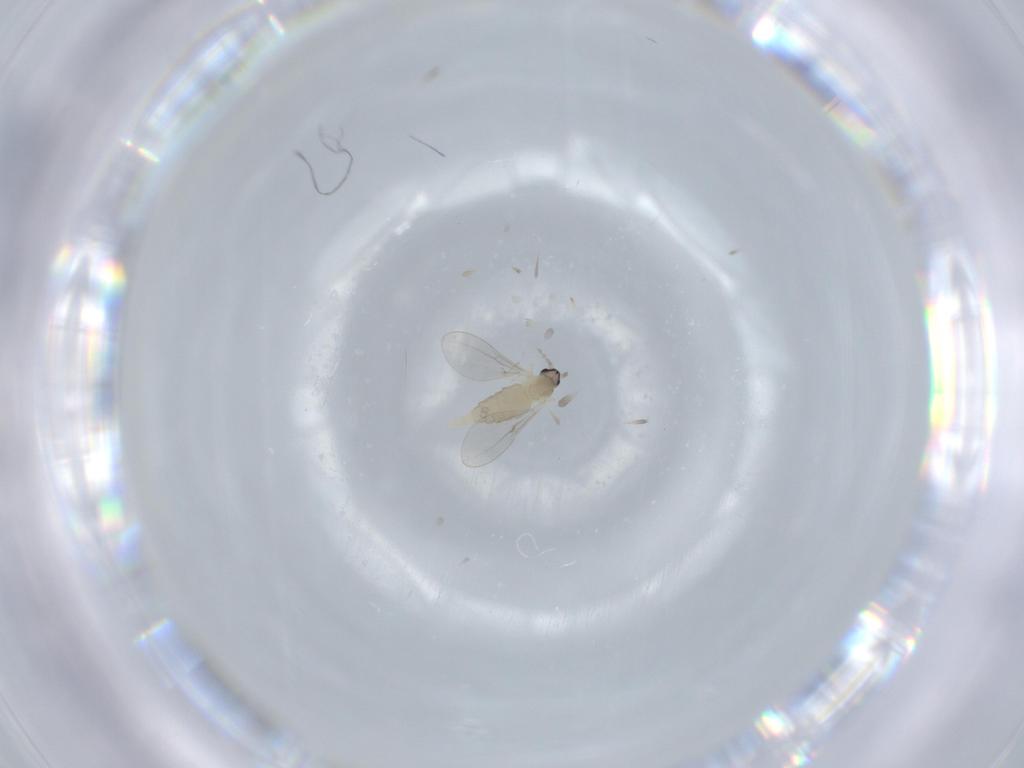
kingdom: Animalia
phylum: Arthropoda
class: Insecta
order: Diptera
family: Cecidomyiidae
